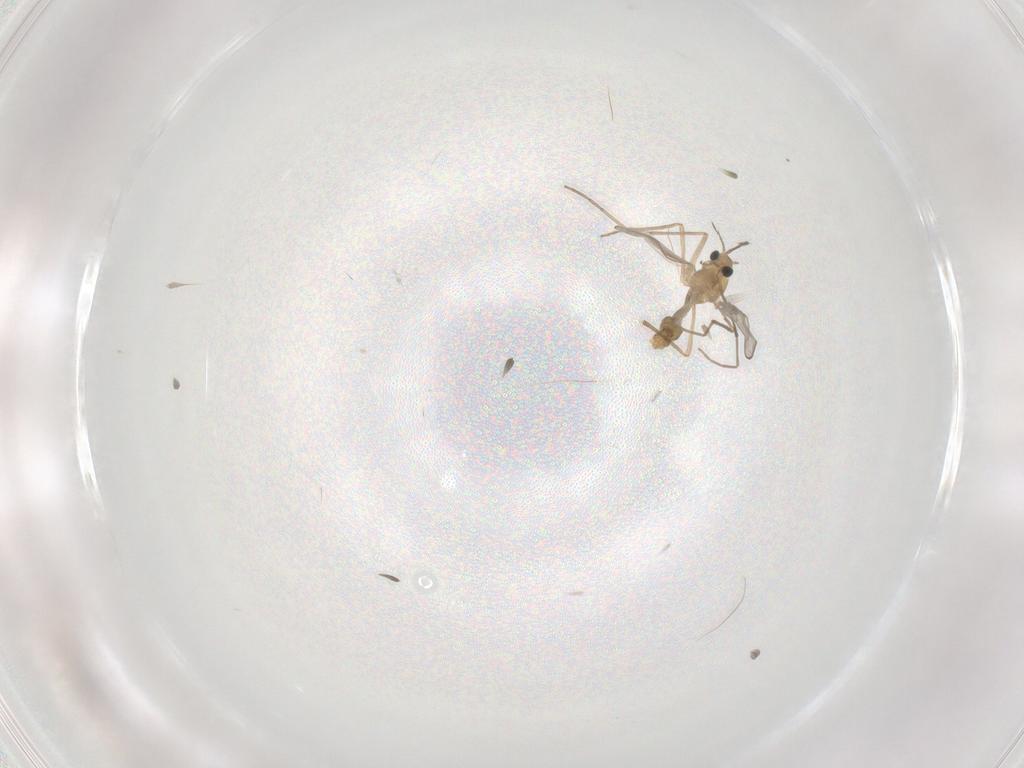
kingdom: Animalia
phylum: Arthropoda
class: Insecta
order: Diptera
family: Chironomidae
